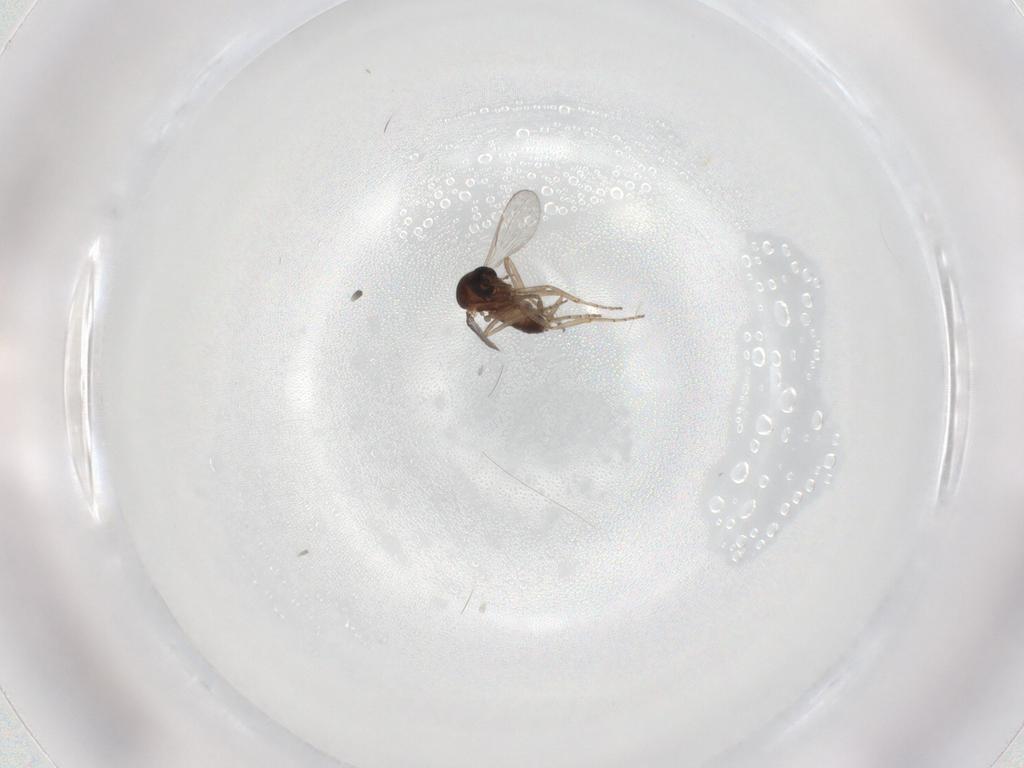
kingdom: Animalia
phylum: Arthropoda
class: Insecta
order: Diptera
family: Ceratopogonidae
